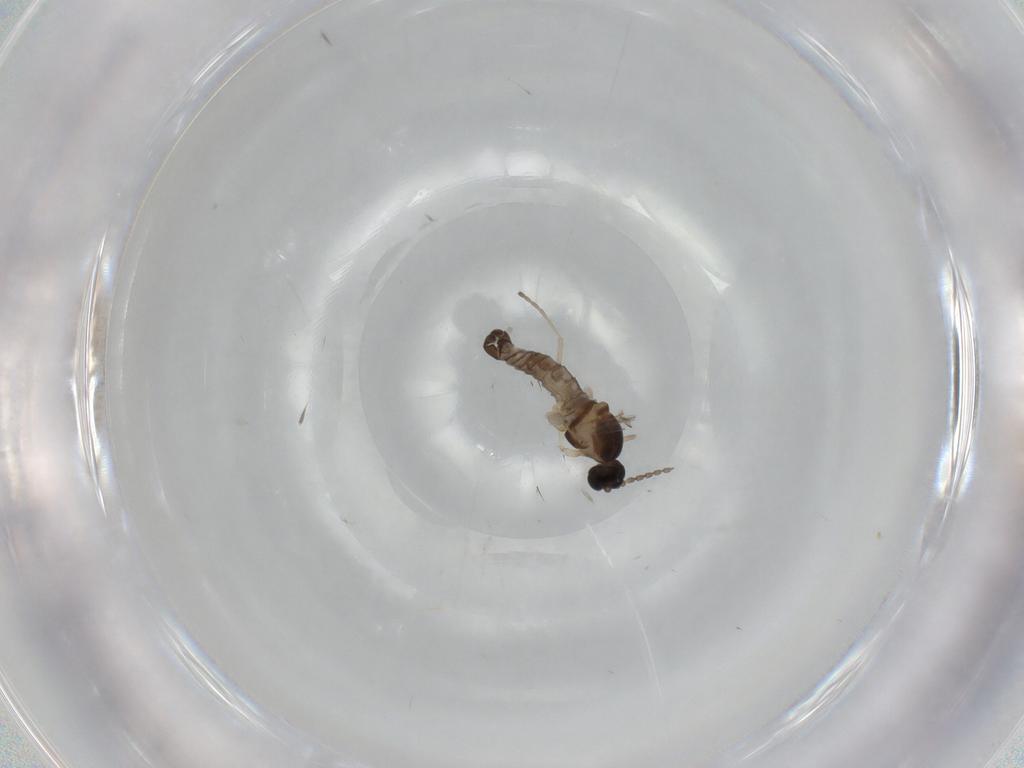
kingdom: Animalia
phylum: Arthropoda
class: Insecta
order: Diptera
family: Cecidomyiidae
